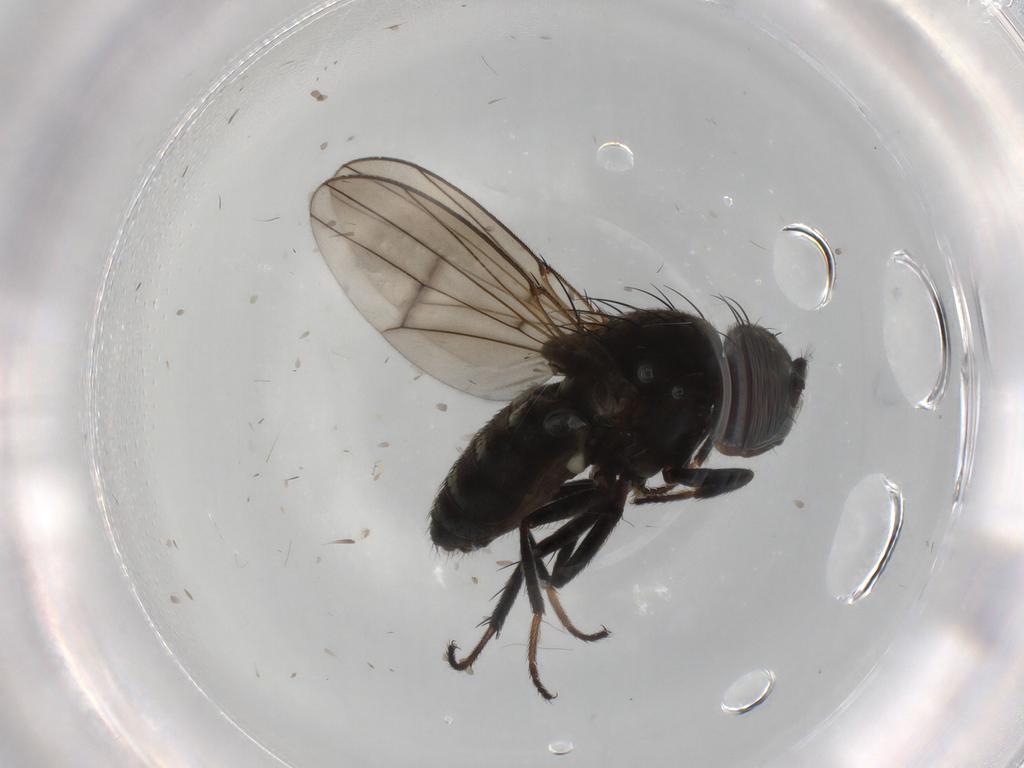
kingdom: Animalia
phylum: Arthropoda
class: Insecta
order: Diptera
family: Ephydridae
